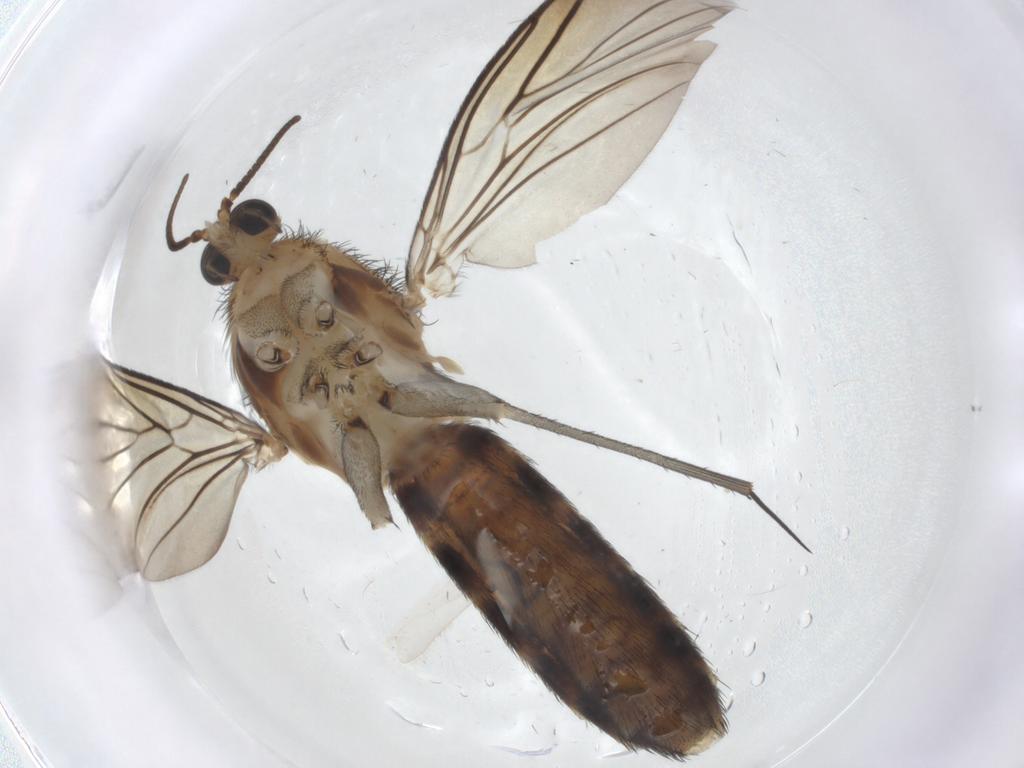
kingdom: Animalia
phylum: Arthropoda
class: Insecta
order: Diptera
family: Keroplatidae
